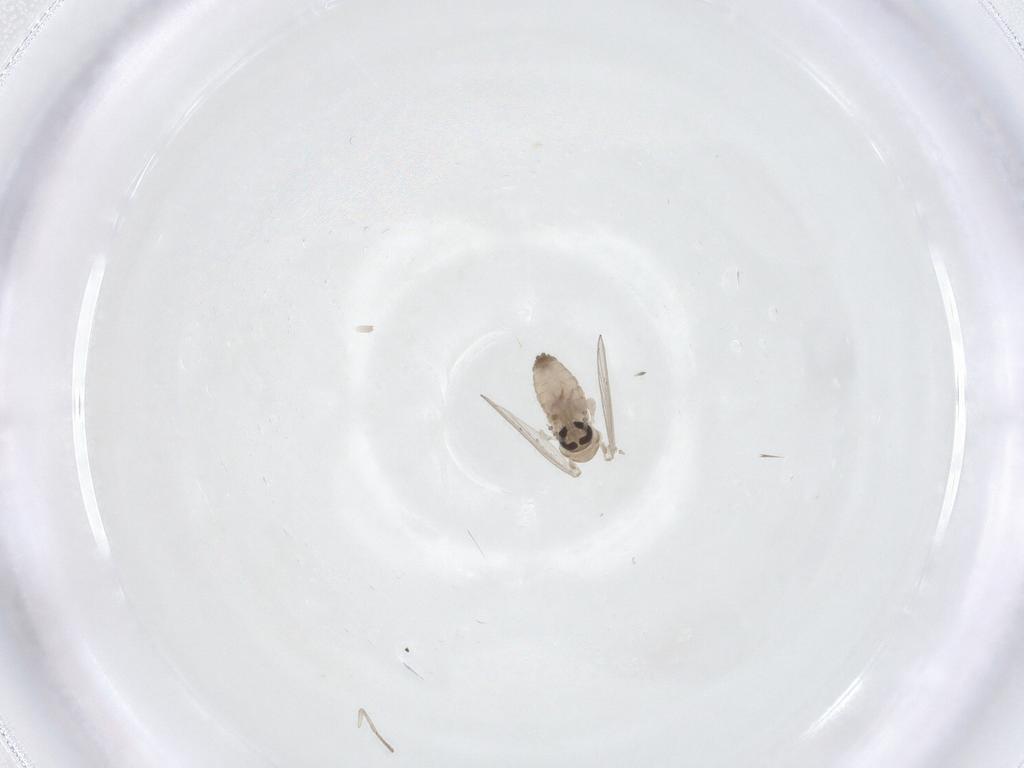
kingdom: Animalia
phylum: Arthropoda
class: Insecta
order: Diptera
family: Psychodidae
